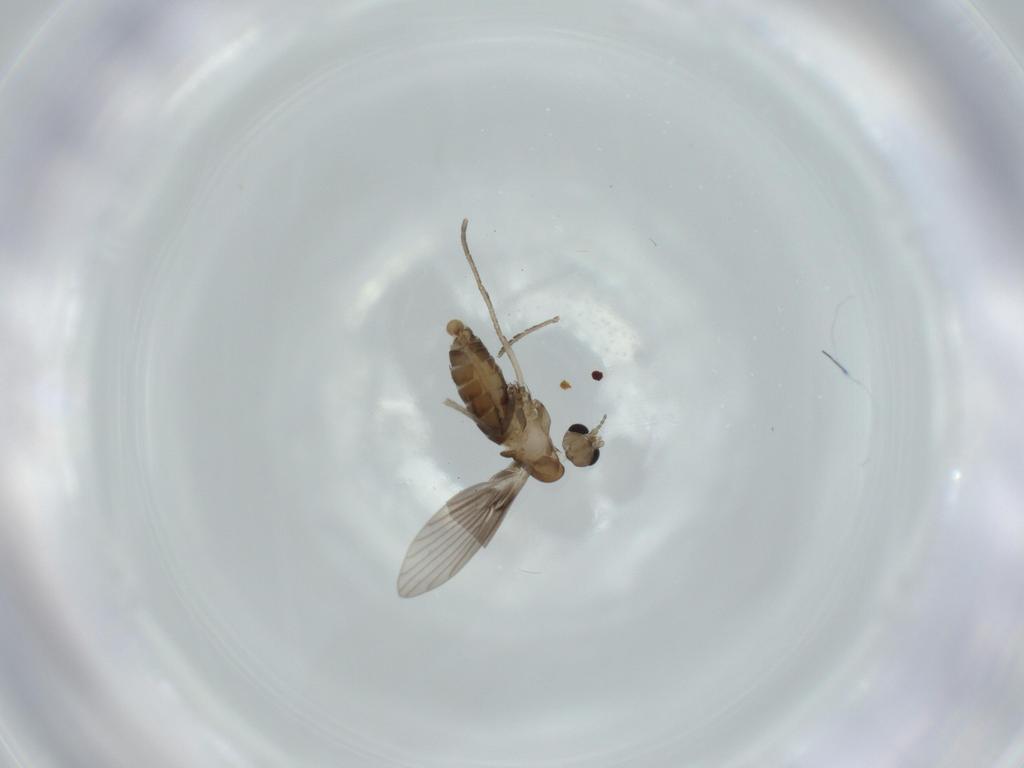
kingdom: Animalia
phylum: Arthropoda
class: Insecta
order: Diptera
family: Psychodidae
